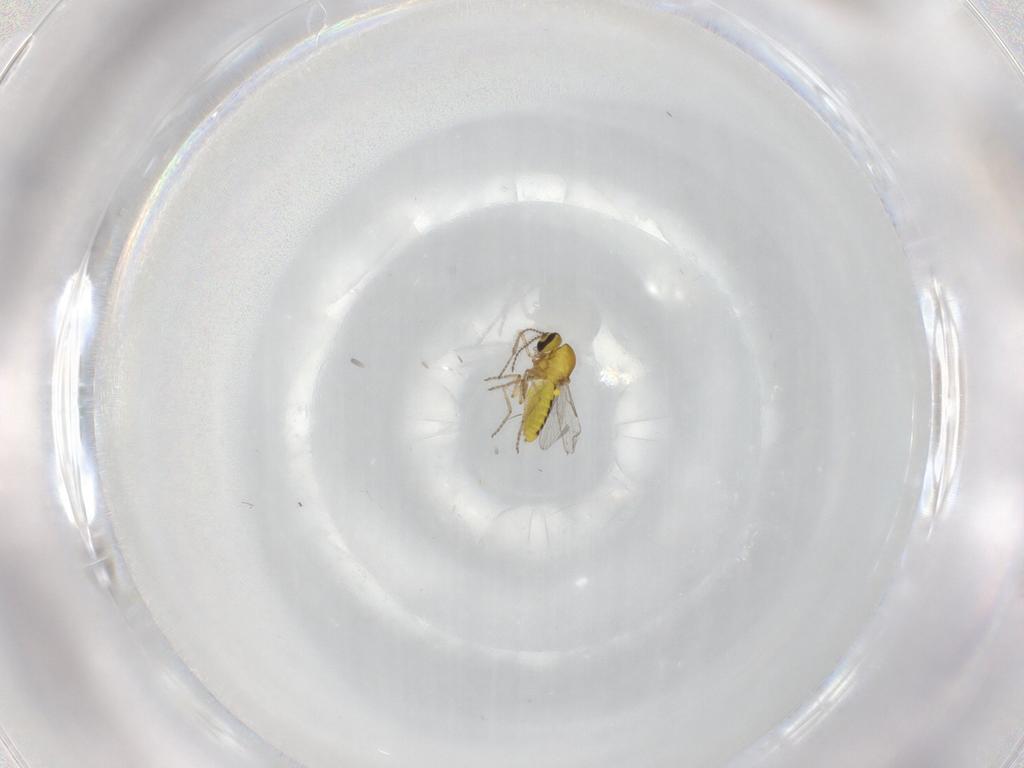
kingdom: Animalia
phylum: Arthropoda
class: Insecta
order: Diptera
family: Ceratopogonidae
